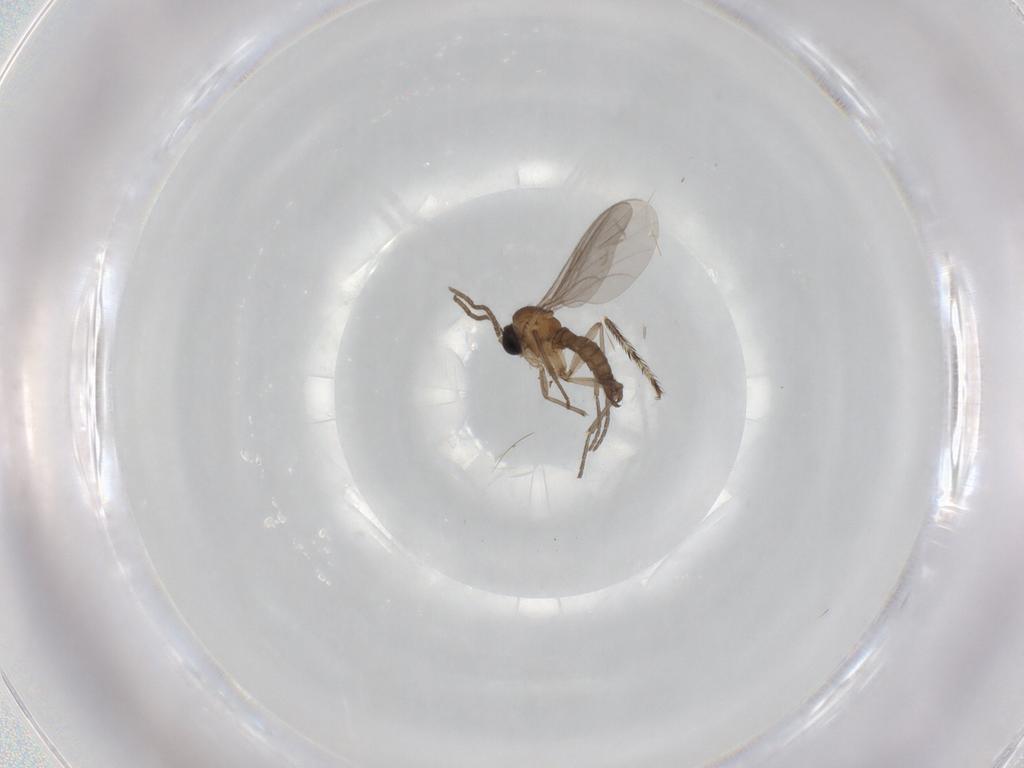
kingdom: Animalia
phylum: Arthropoda
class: Insecta
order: Diptera
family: Sciaridae
